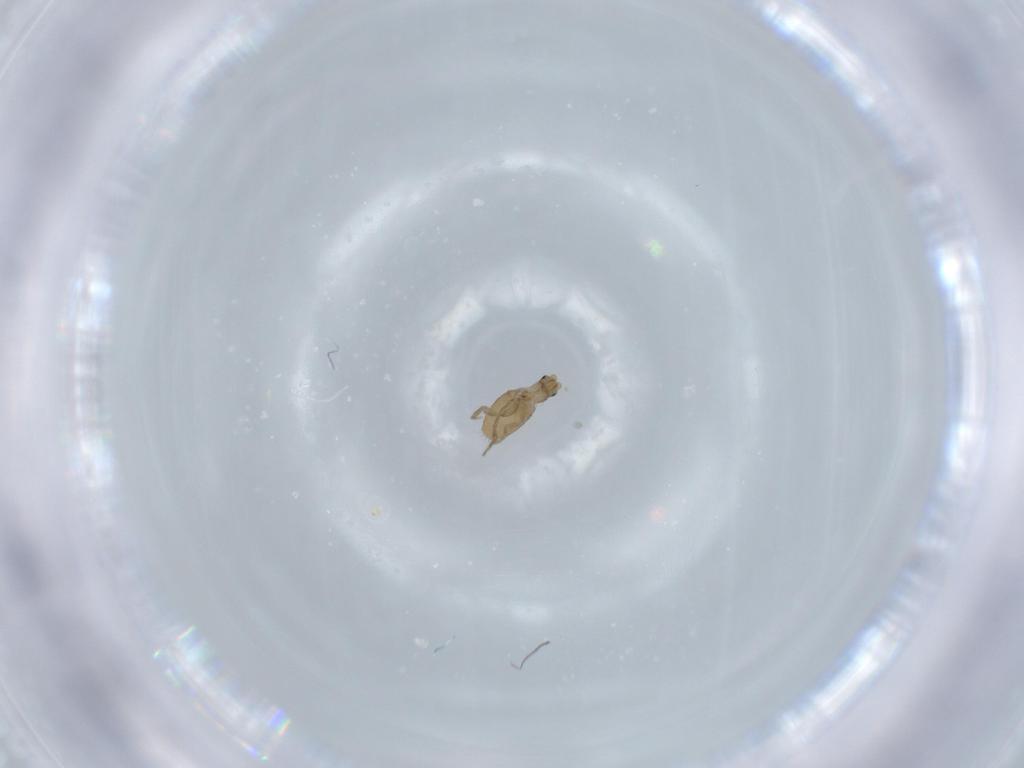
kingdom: Animalia
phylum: Arthropoda
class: Insecta
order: Diptera
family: Phoridae
